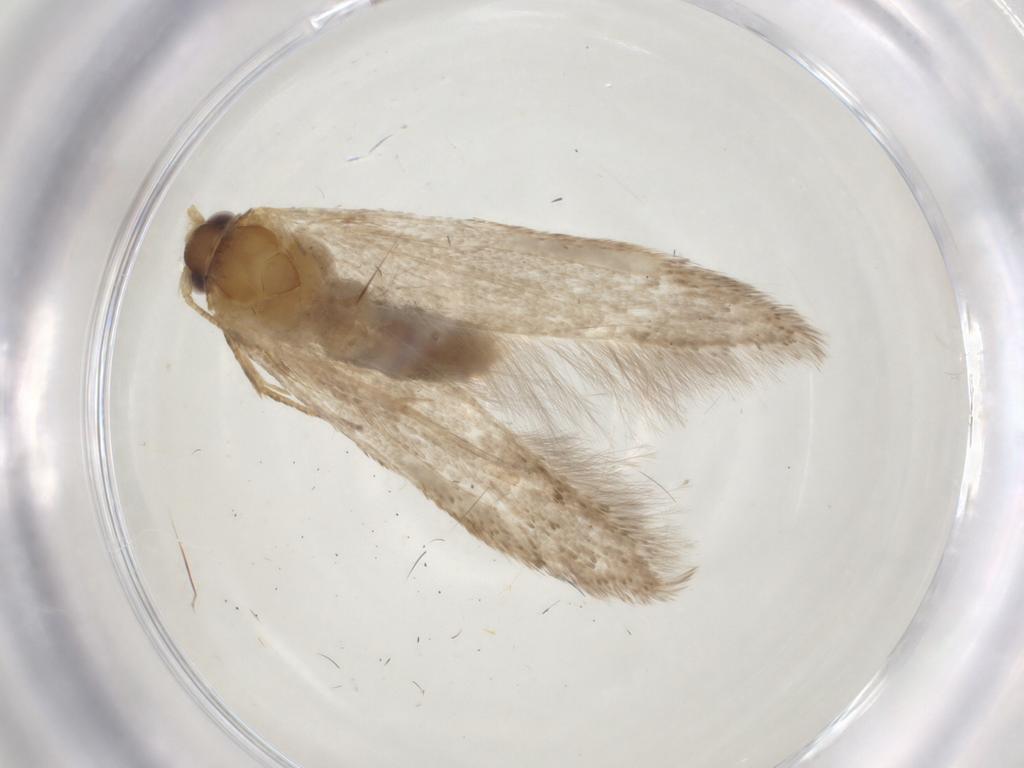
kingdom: Animalia
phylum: Arthropoda
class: Insecta
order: Lepidoptera
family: Coleophoridae
